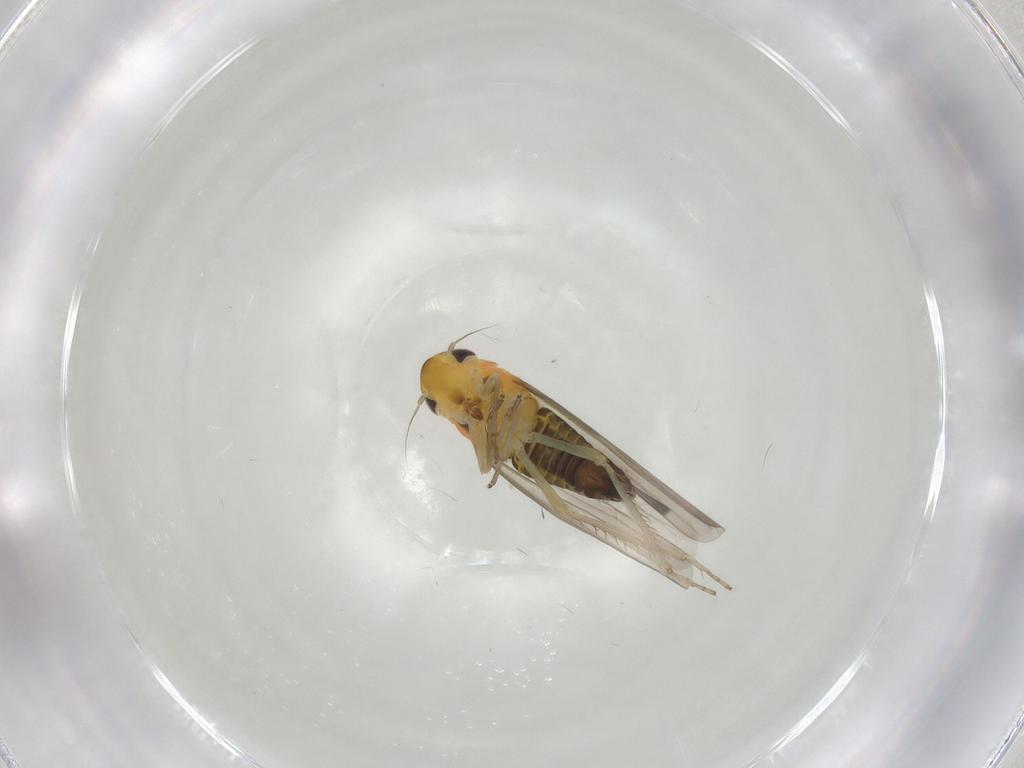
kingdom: Animalia
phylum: Arthropoda
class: Insecta
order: Hemiptera
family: Cicadellidae
